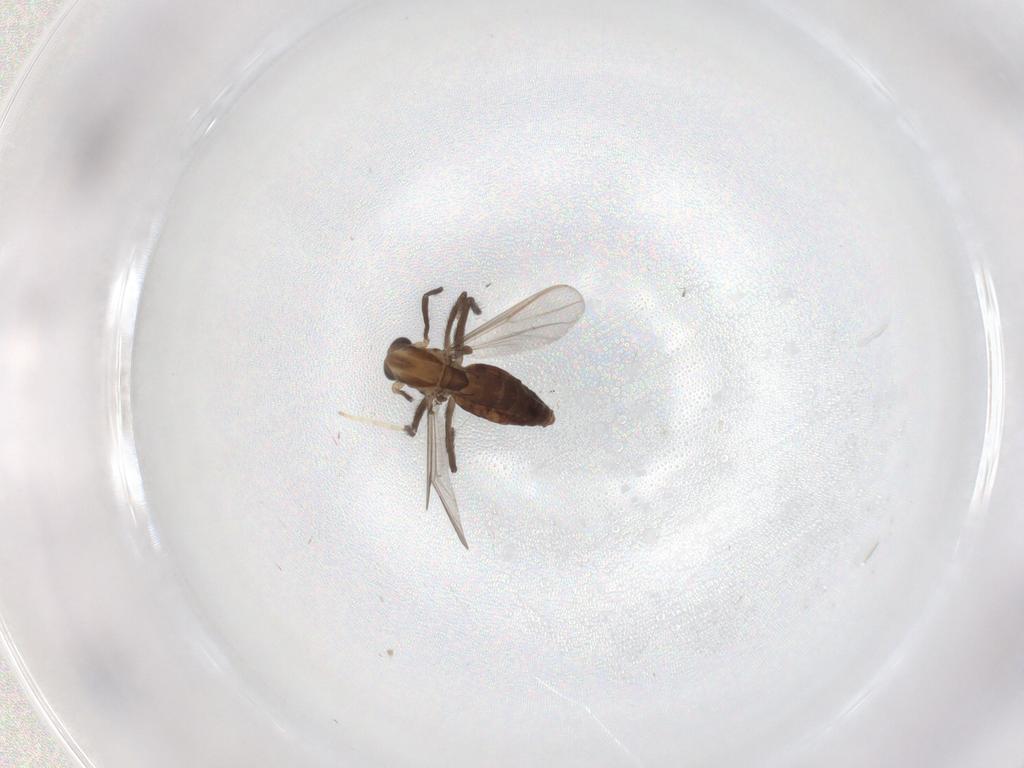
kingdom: Animalia
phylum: Arthropoda
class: Insecta
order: Diptera
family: Chironomidae
